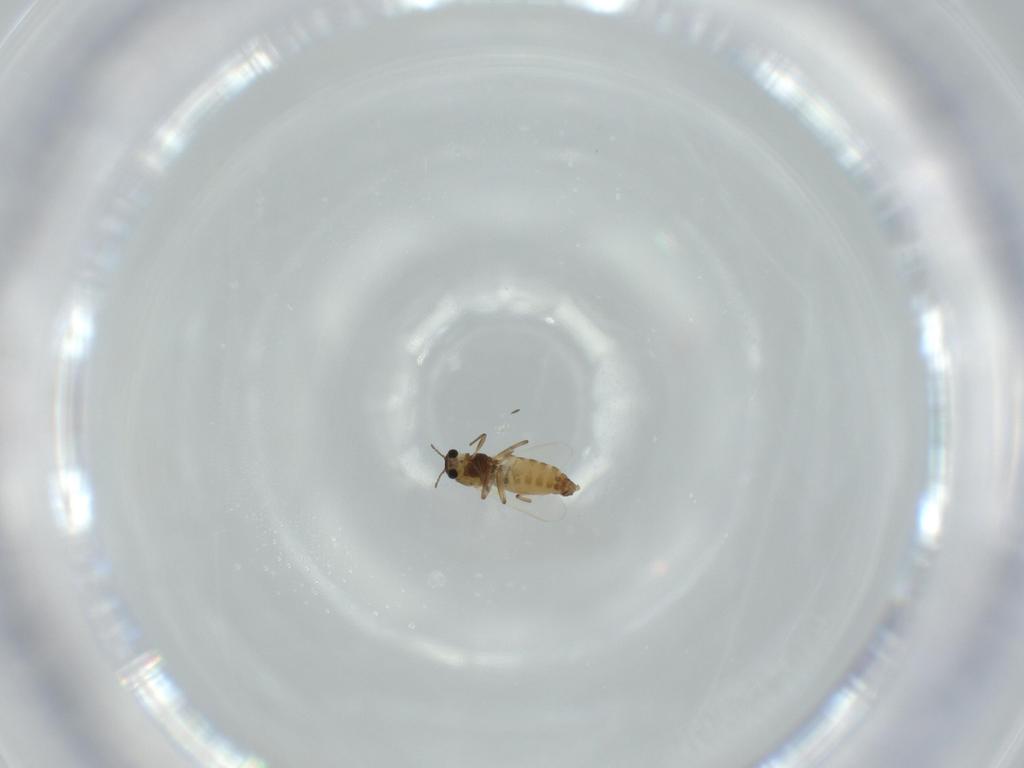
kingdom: Animalia
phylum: Arthropoda
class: Insecta
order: Diptera
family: Chironomidae
